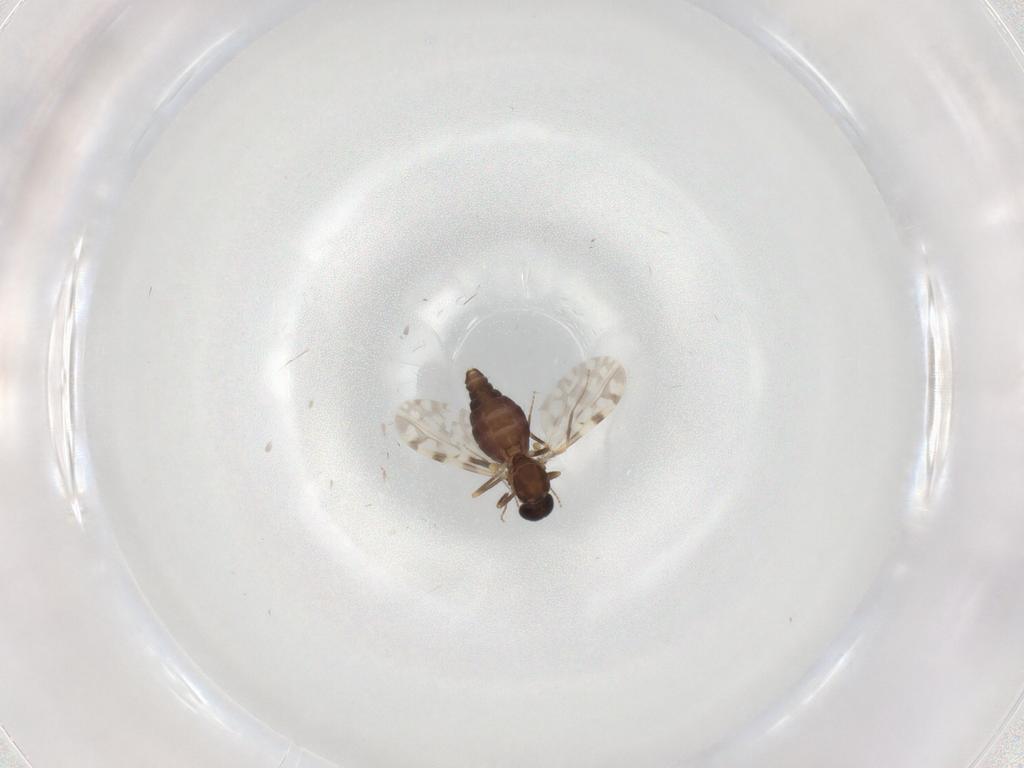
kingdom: Animalia
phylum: Arthropoda
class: Insecta
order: Diptera
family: Ceratopogonidae
